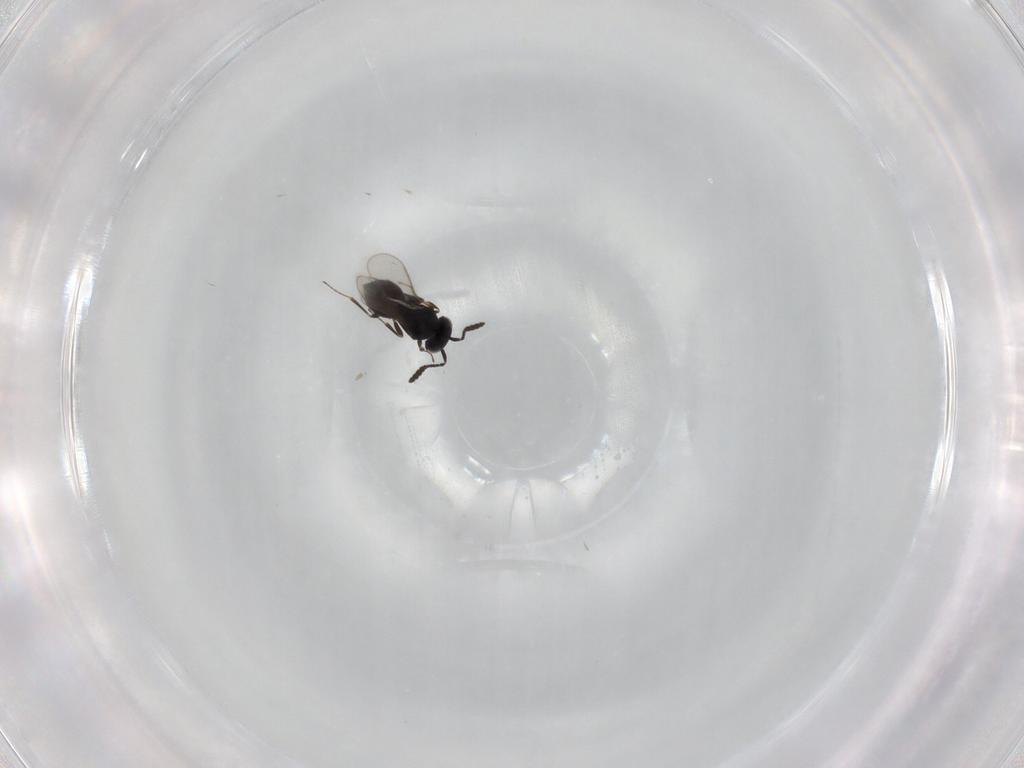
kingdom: Animalia
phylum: Arthropoda
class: Insecta
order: Hymenoptera
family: Scelionidae
